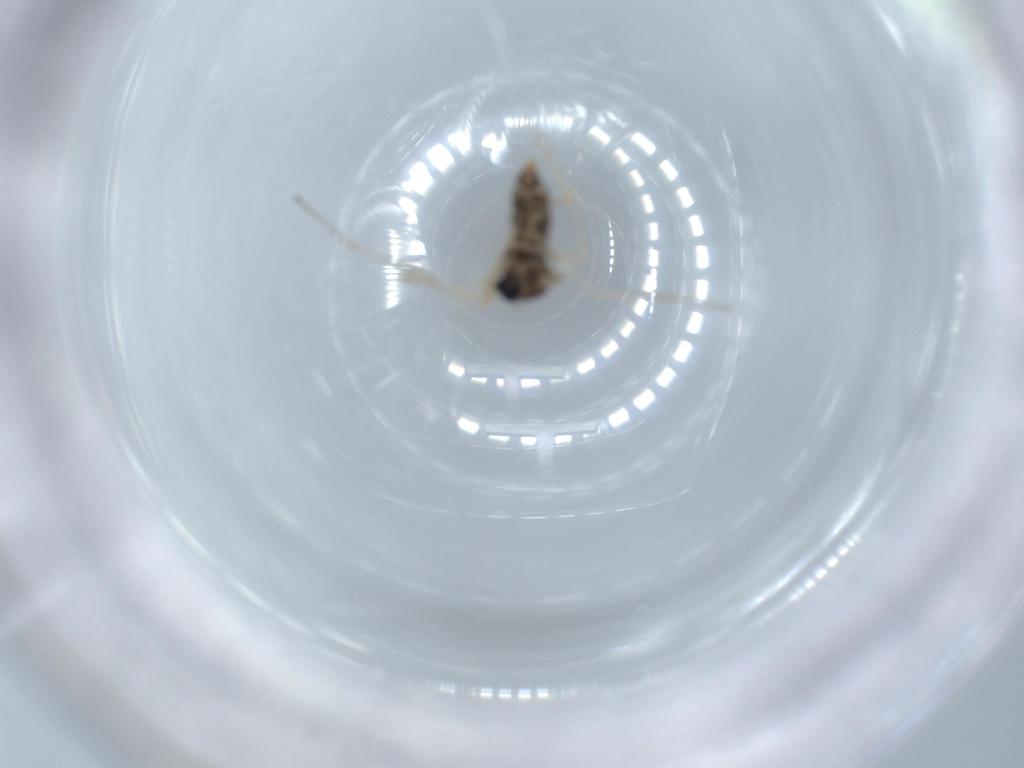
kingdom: Animalia
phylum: Arthropoda
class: Insecta
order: Diptera
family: Cecidomyiidae
